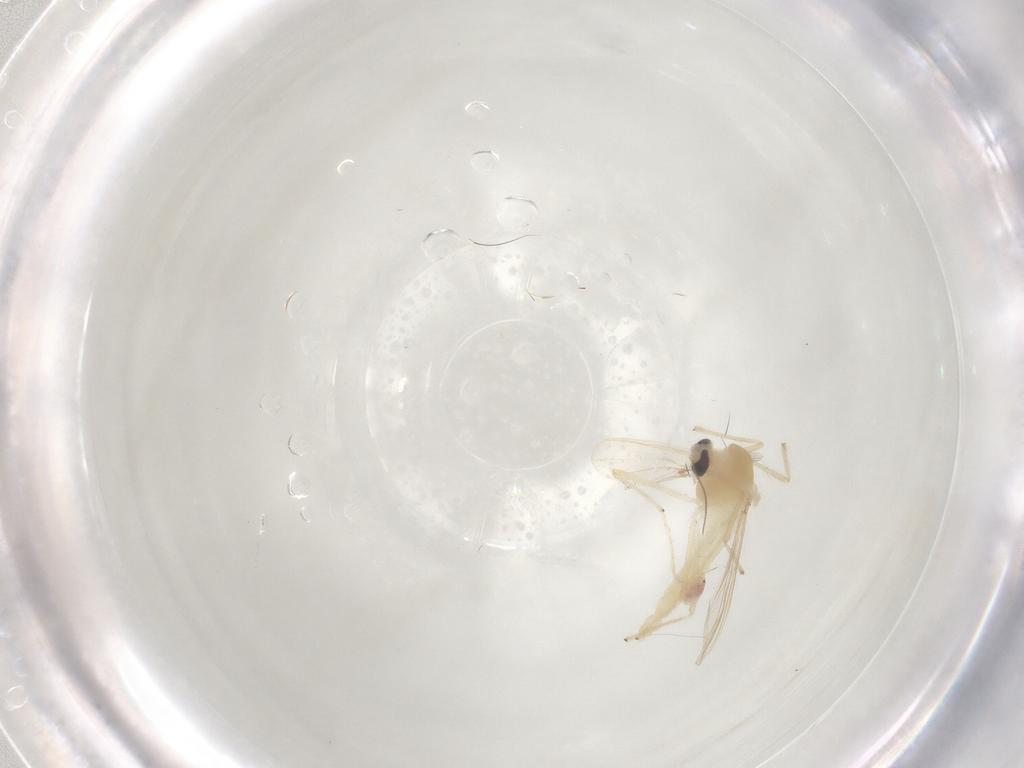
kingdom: Animalia
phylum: Arthropoda
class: Insecta
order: Diptera
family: Chironomidae
